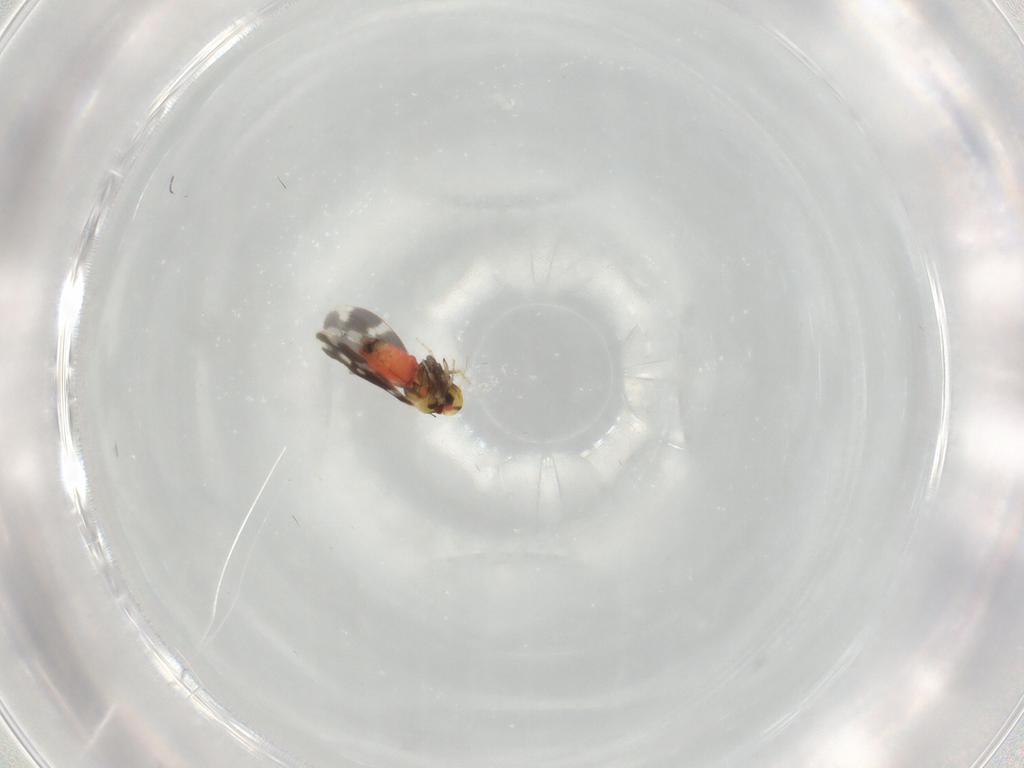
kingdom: Animalia
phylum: Arthropoda
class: Insecta
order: Hemiptera
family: Aleyrodidae
